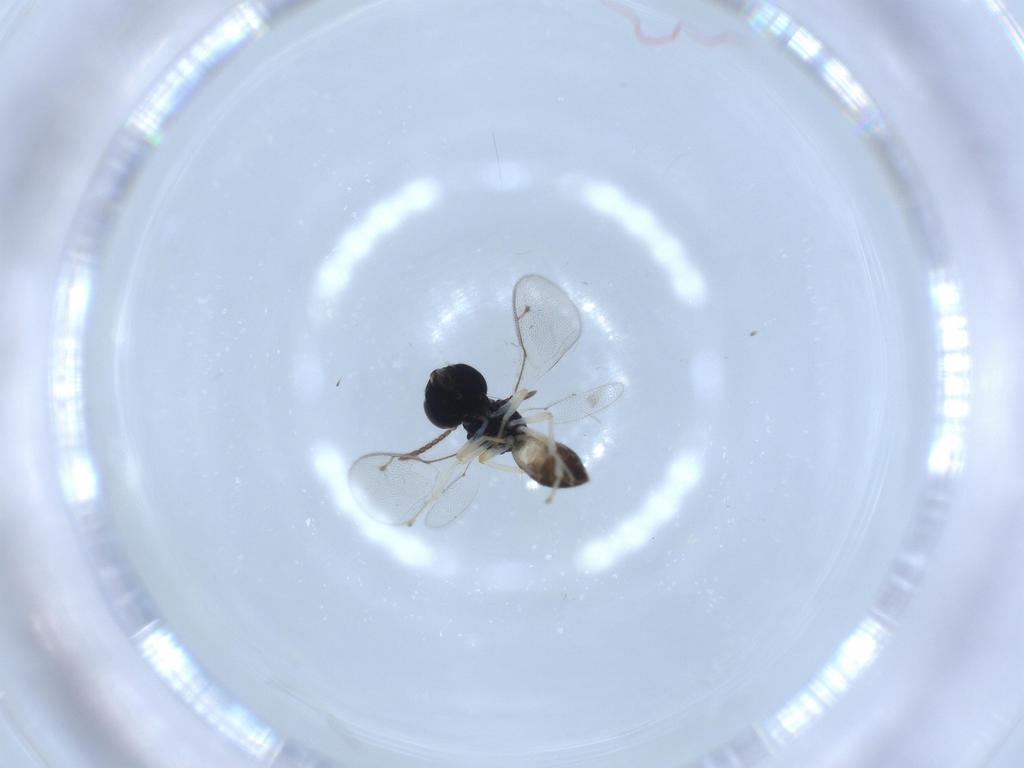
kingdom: Animalia
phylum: Arthropoda
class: Insecta
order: Hymenoptera
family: Pteromalidae
